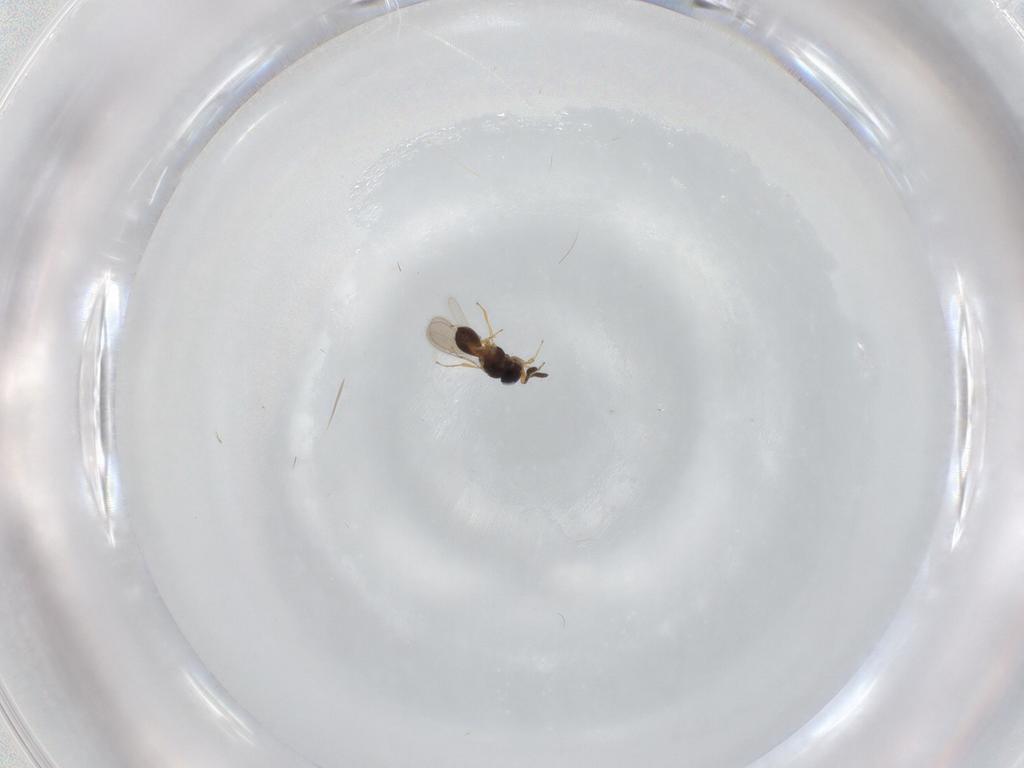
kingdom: Animalia
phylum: Arthropoda
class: Insecta
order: Hymenoptera
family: Scelionidae
